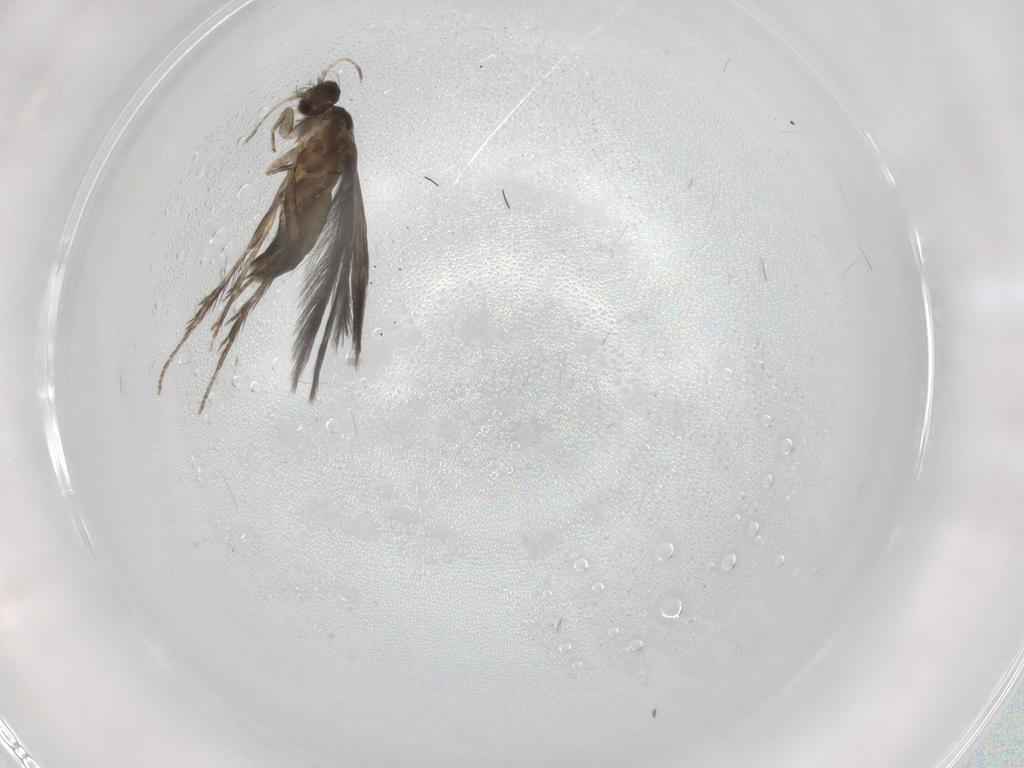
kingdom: Animalia
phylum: Arthropoda
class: Insecta
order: Trichoptera
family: Hydroptilidae
